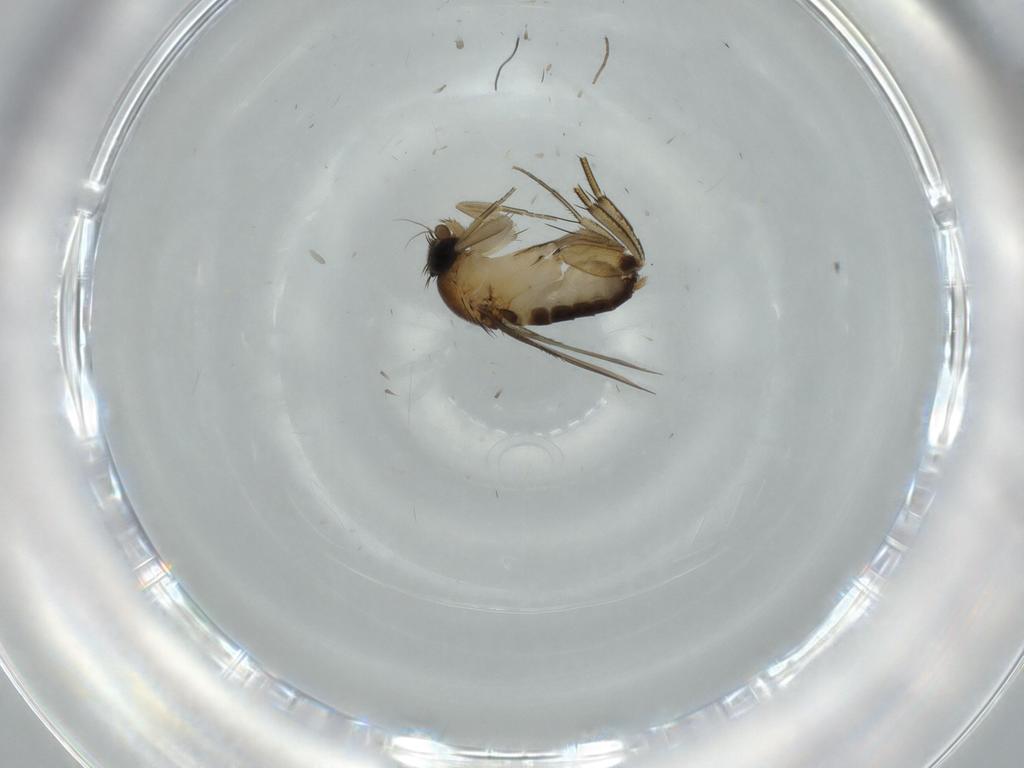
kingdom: Animalia
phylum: Arthropoda
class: Insecta
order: Diptera
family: Phoridae
